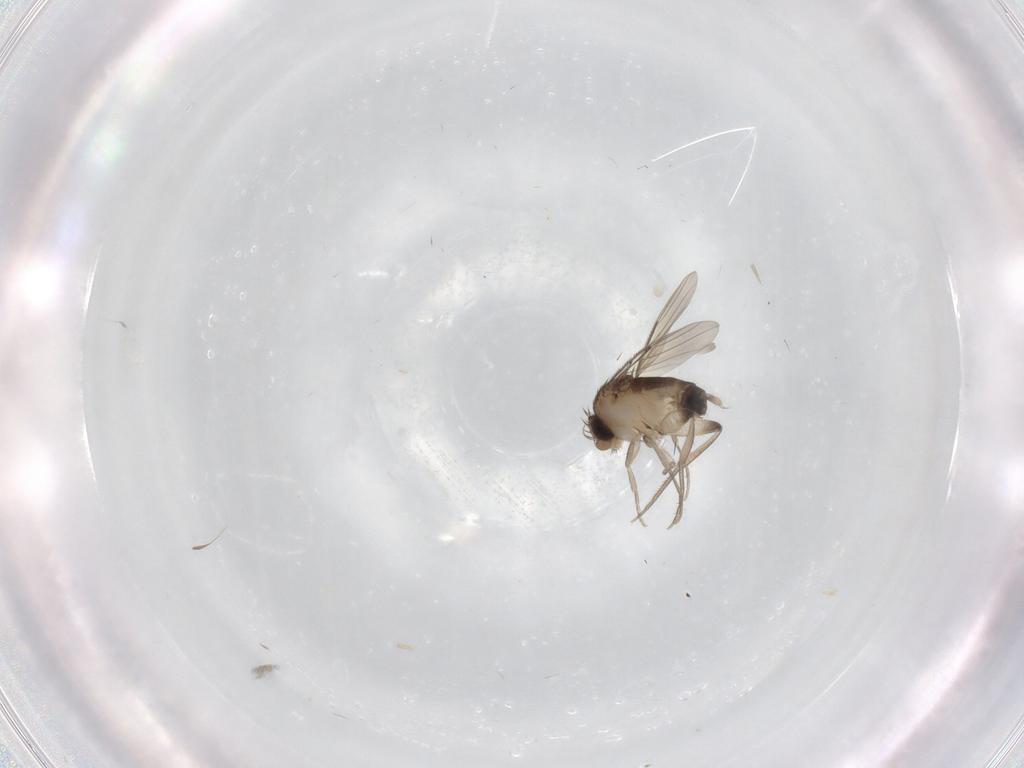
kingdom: Animalia
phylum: Arthropoda
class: Insecta
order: Diptera
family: Phoridae
